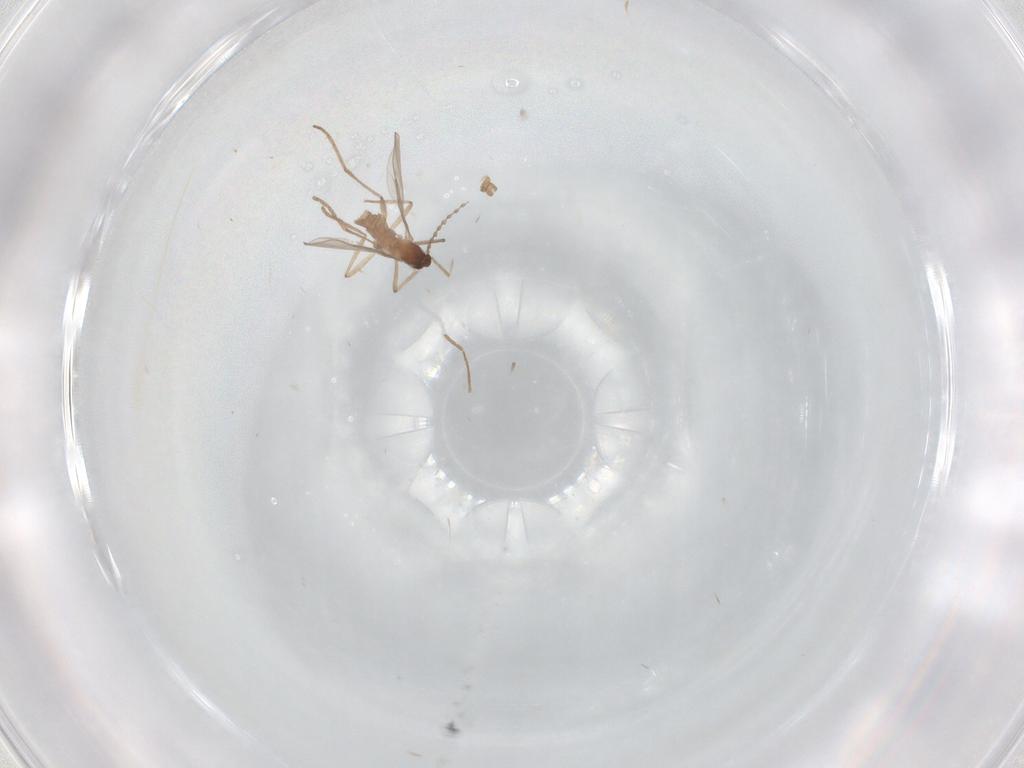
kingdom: Animalia
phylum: Arthropoda
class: Insecta
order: Diptera
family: Cecidomyiidae
